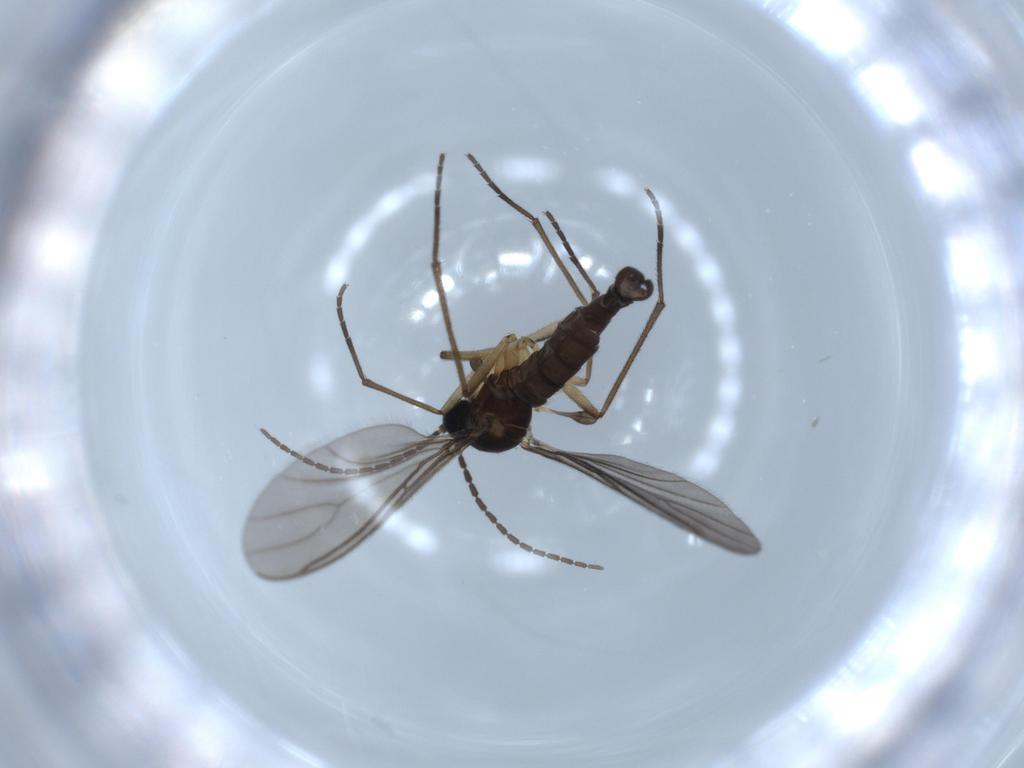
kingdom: Animalia
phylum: Arthropoda
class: Insecta
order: Diptera
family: Sciaridae
